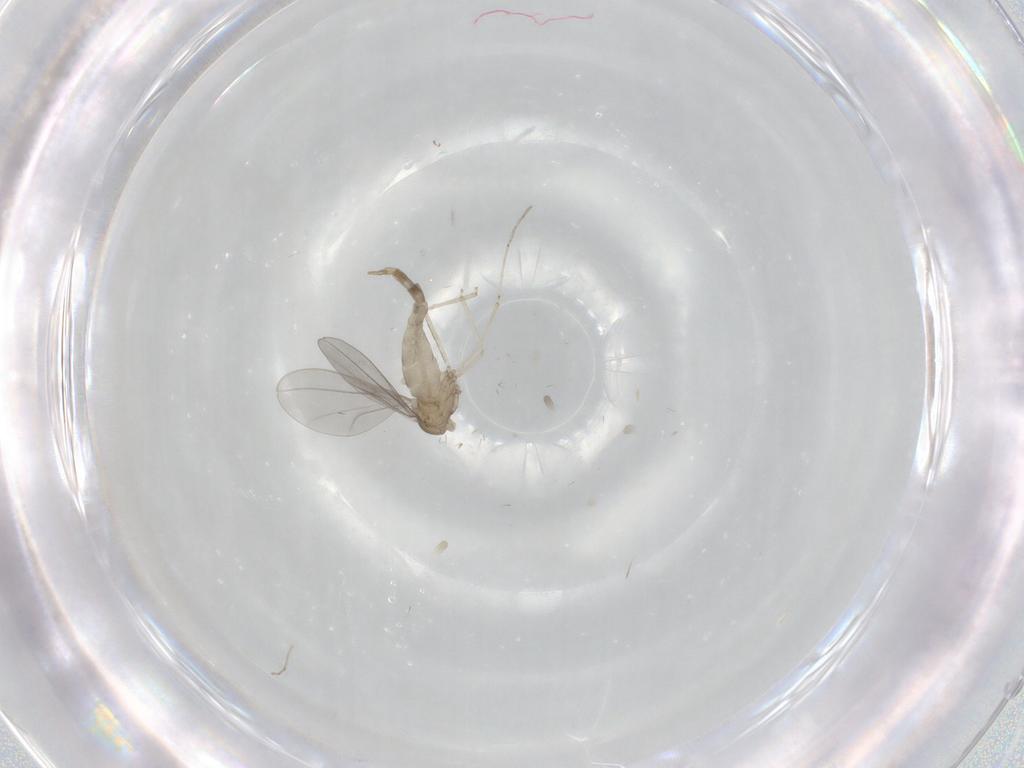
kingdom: Animalia
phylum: Arthropoda
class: Insecta
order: Diptera
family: Cecidomyiidae
